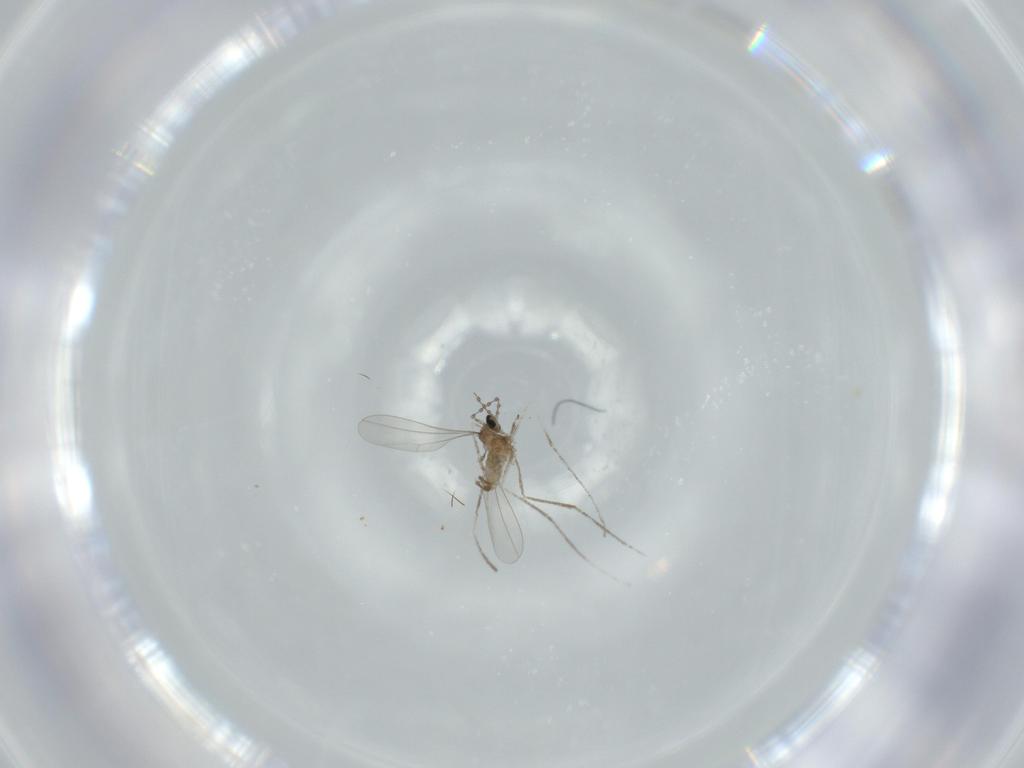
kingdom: Animalia
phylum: Arthropoda
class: Insecta
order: Diptera
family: Cecidomyiidae
